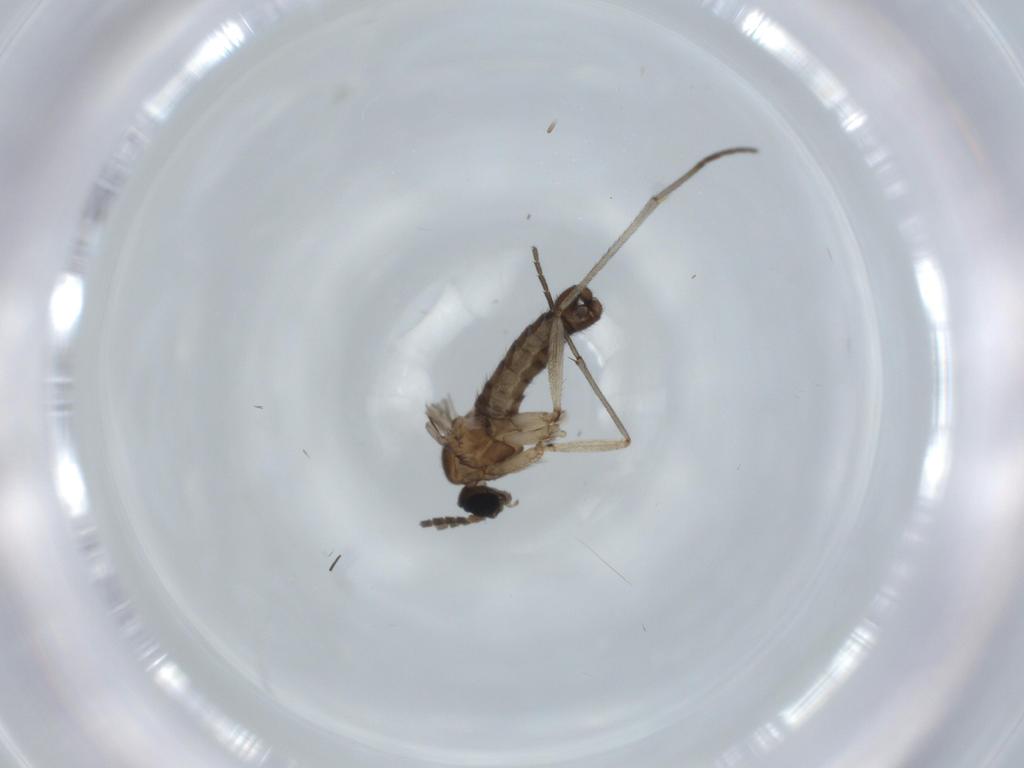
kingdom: Animalia
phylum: Arthropoda
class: Insecta
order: Diptera
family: Sciaridae
